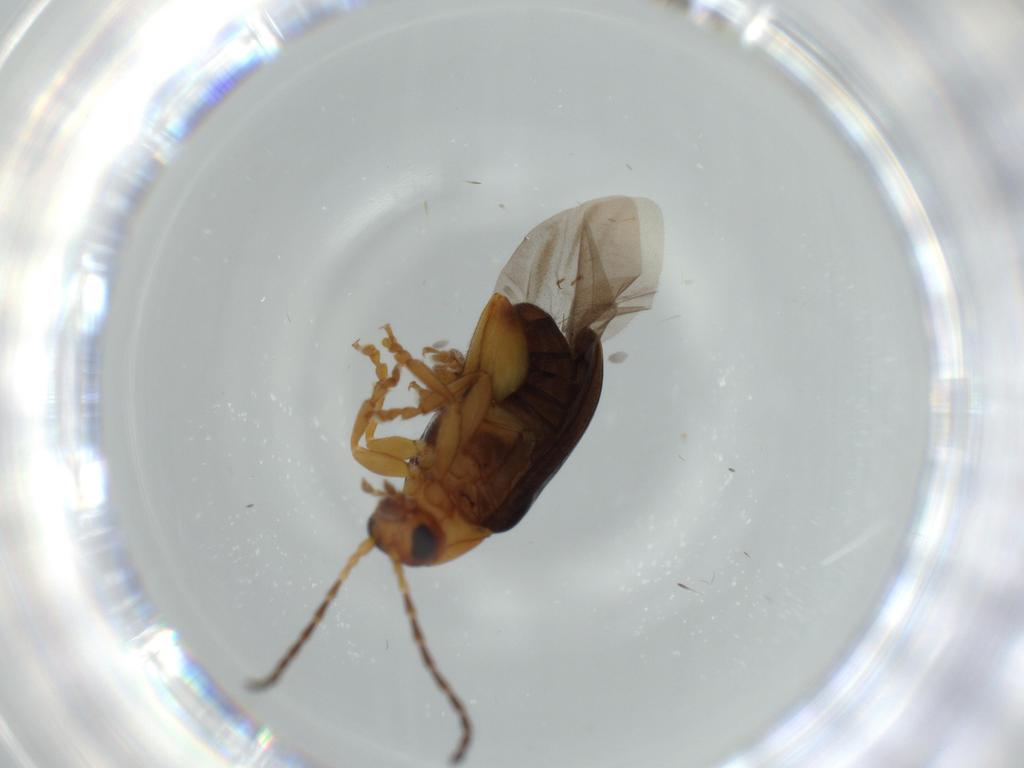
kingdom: Animalia
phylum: Arthropoda
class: Insecta
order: Coleoptera
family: Chrysomelidae
